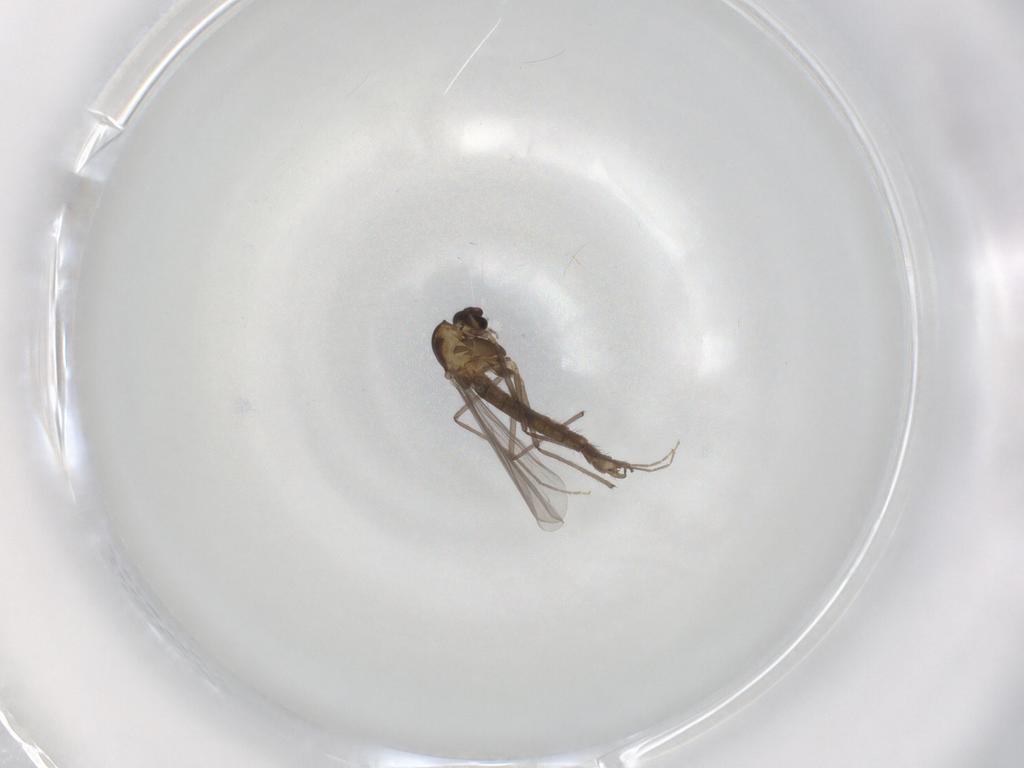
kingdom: Animalia
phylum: Arthropoda
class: Insecta
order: Diptera
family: Chironomidae
